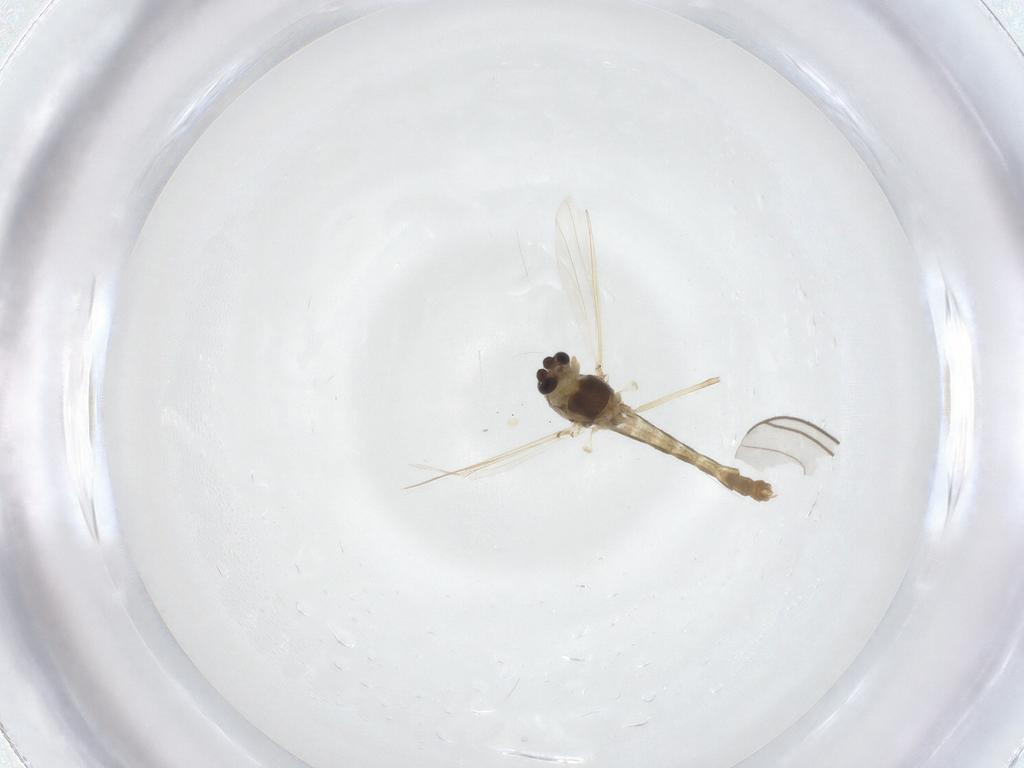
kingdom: Animalia
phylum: Arthropoda
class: Insecta
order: Diptera
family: Chironomidae
